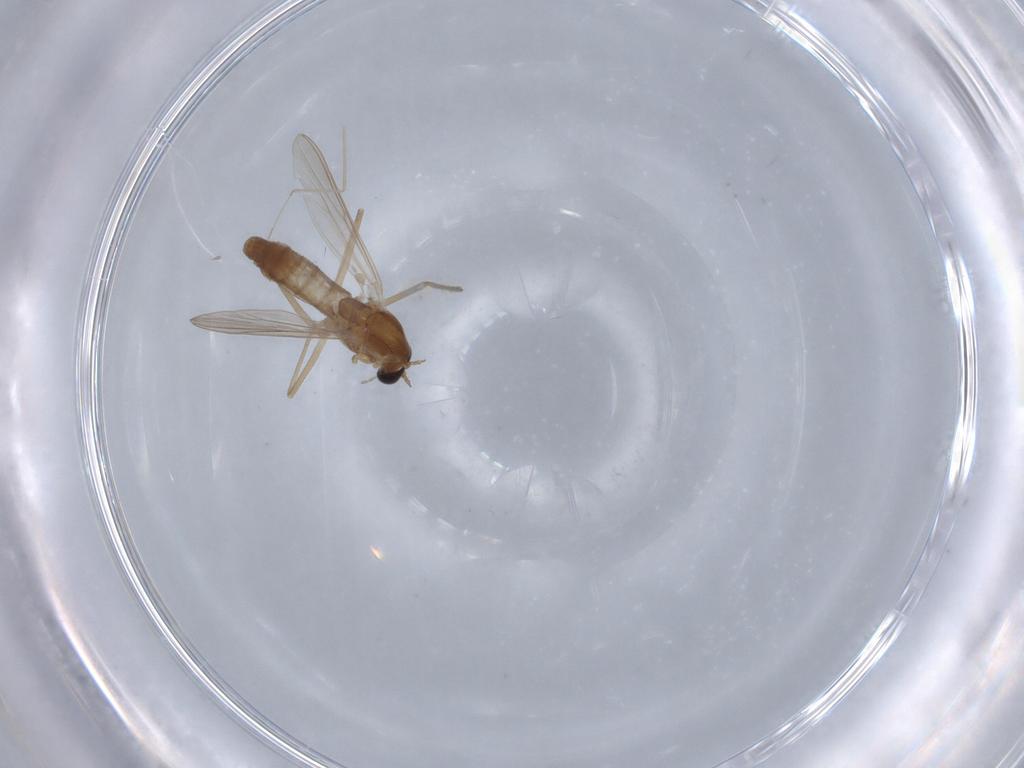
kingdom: Animalia
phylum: Arthropoda
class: Insecta
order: Diptera
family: Chironomidae
